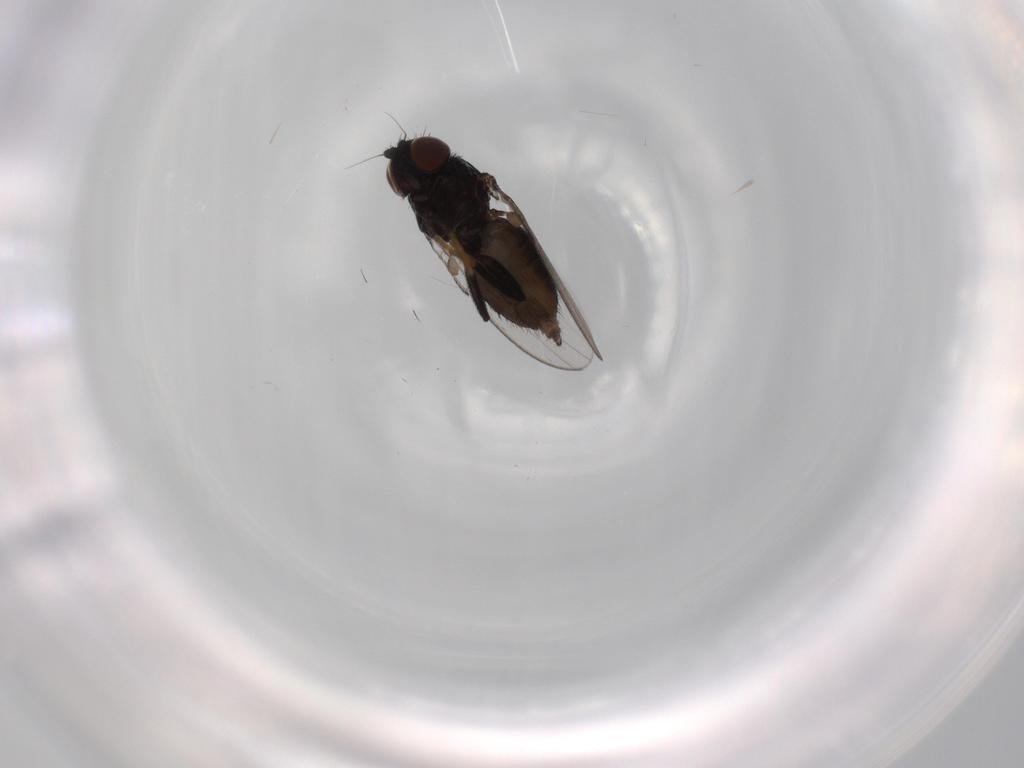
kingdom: Animalia
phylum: Arthropoda
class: Insecta
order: Diptera
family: Milichiidae
